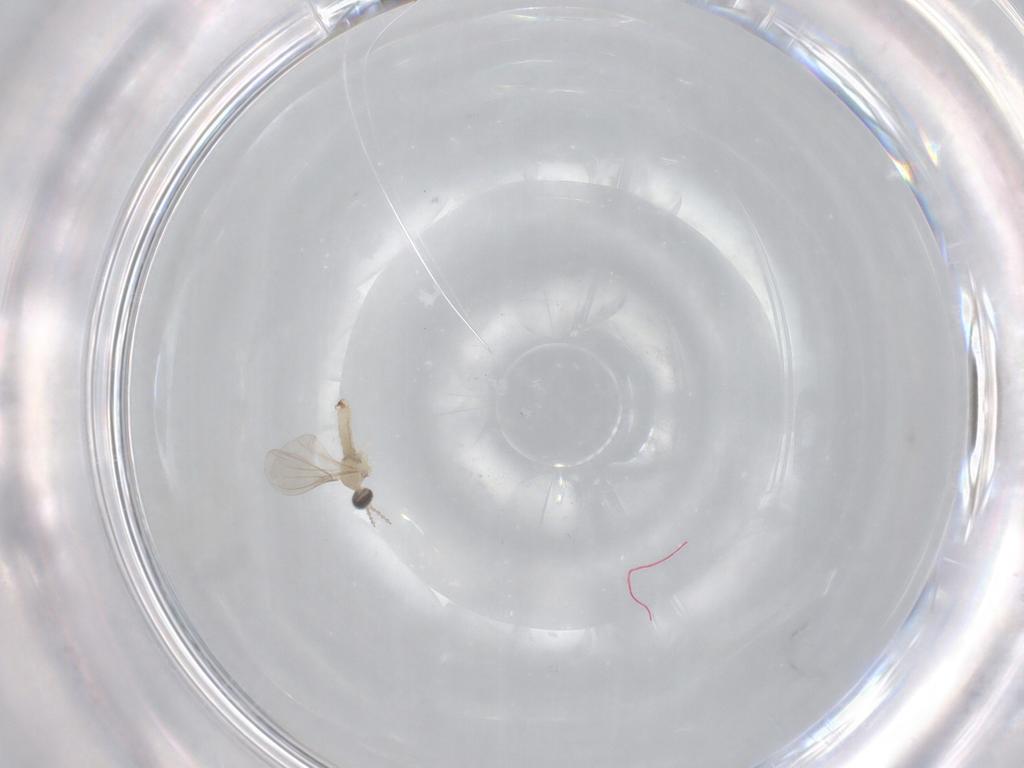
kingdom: Animalia
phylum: Arthropoda
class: Insecta
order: Diptera
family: Cecidomyiidae
